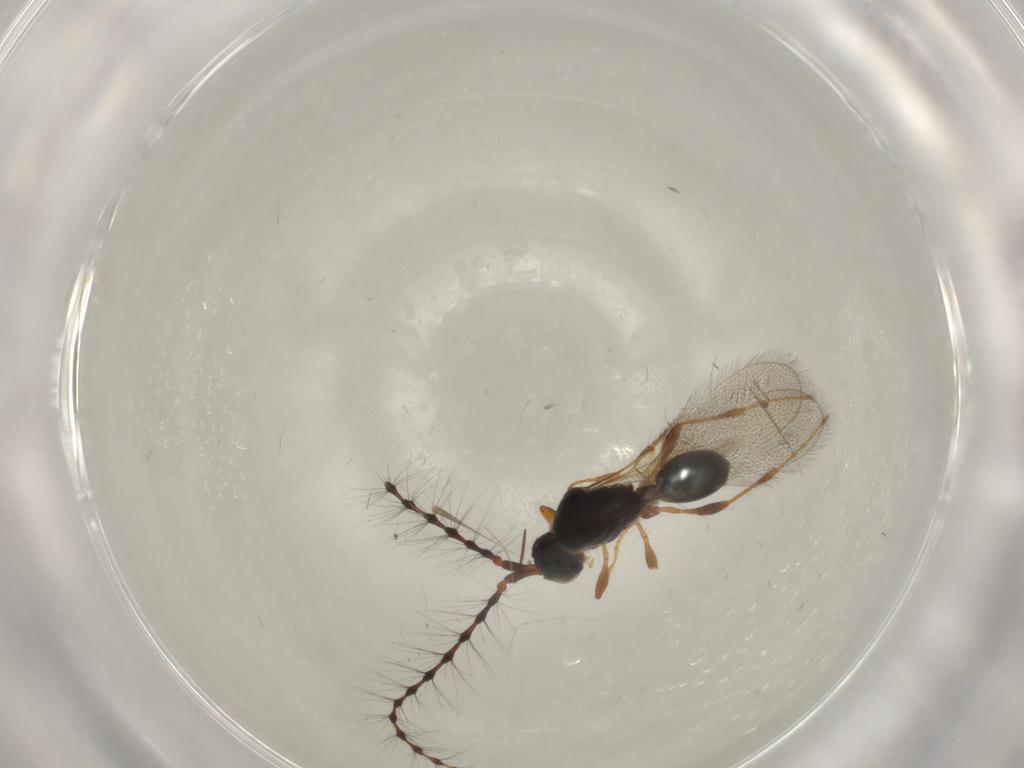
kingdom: Animalia
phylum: Arthropoda
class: Insecta
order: Hymenoptera
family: Diapriidae
